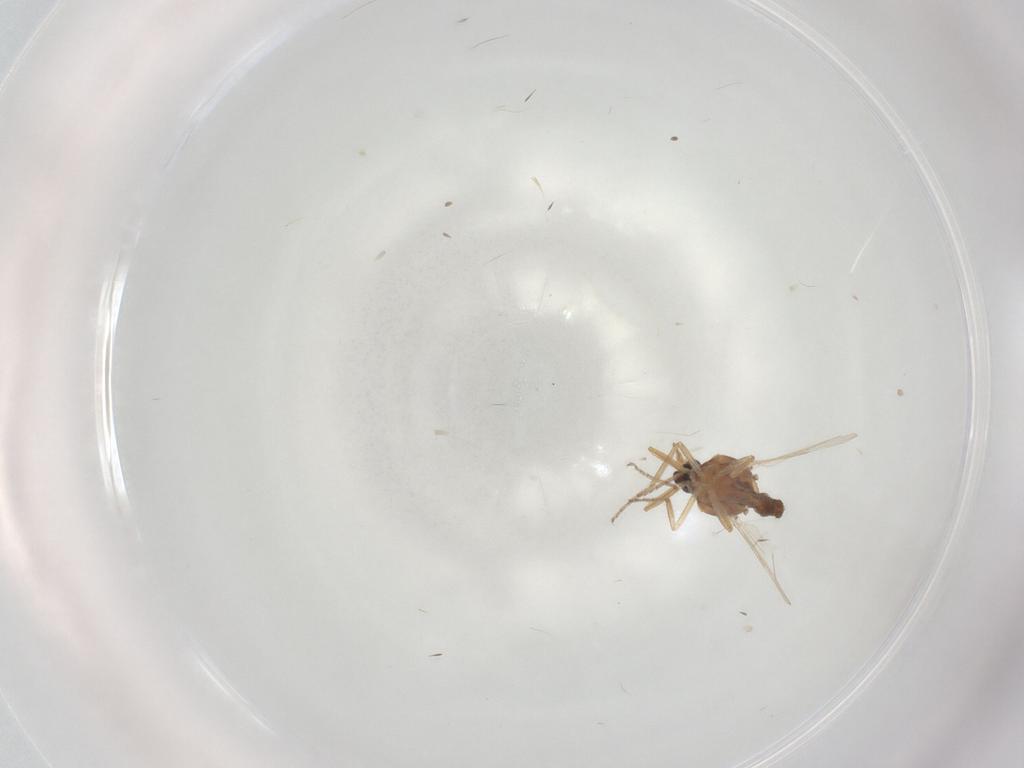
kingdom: Animalia
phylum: Arthropoda
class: Insecta
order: Diptera
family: Ceratopogonidae
